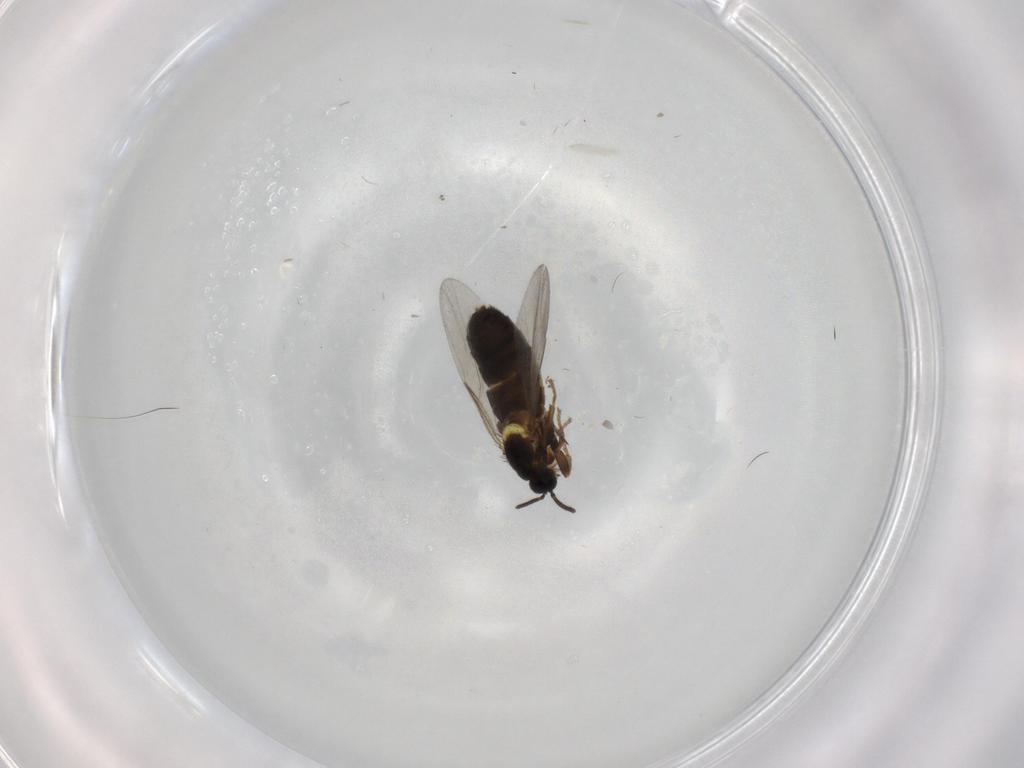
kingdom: Animalia
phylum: Arthropoda
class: Insecta
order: Diptera
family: Scatopsidae
